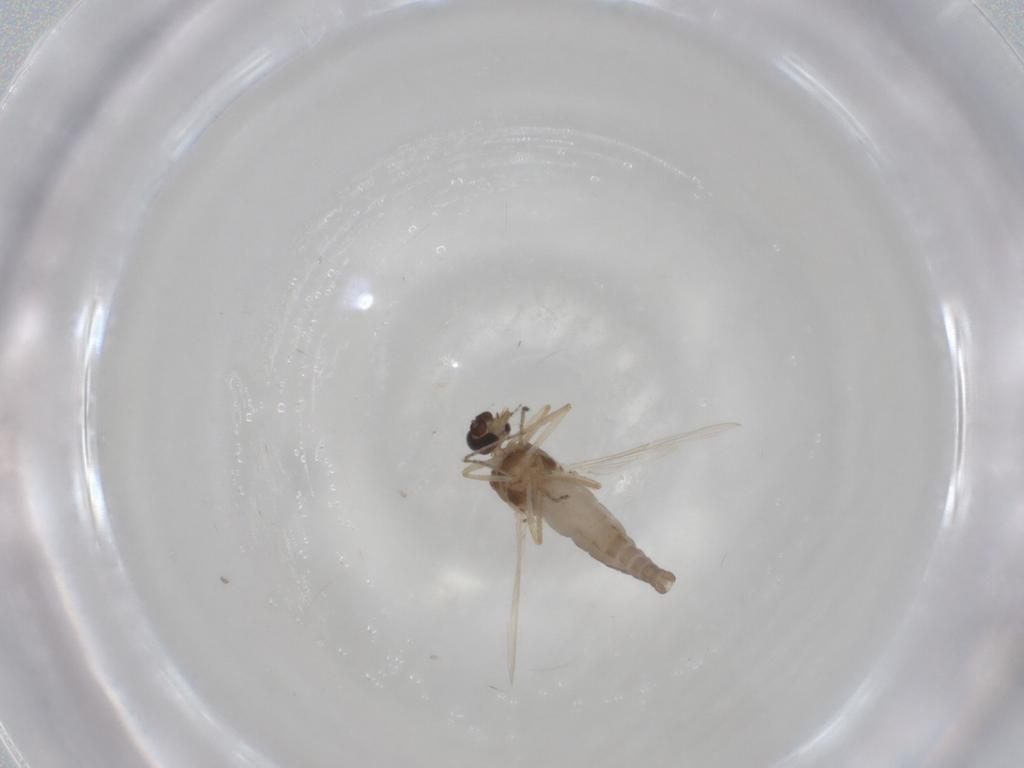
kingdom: Animalia
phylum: Arthropoda
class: Insecta
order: Diptera
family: Ceratopogonidae
